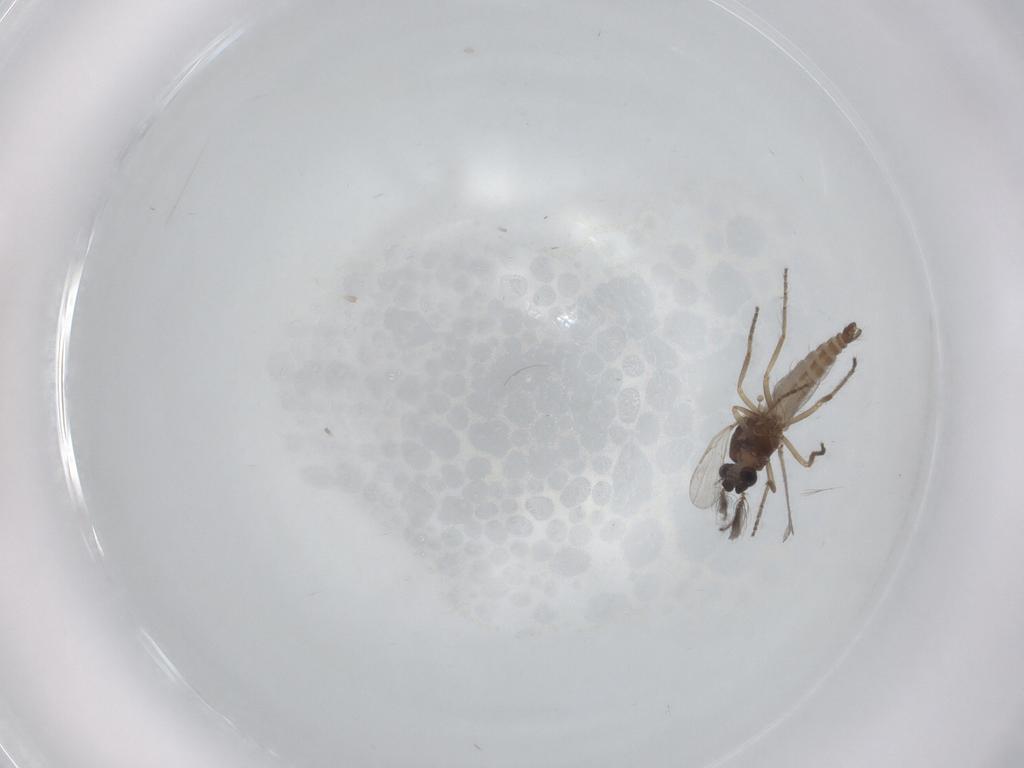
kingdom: Animalia
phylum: Arthropoda
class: Insecta
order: Diptera
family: Ceratopogonidae
